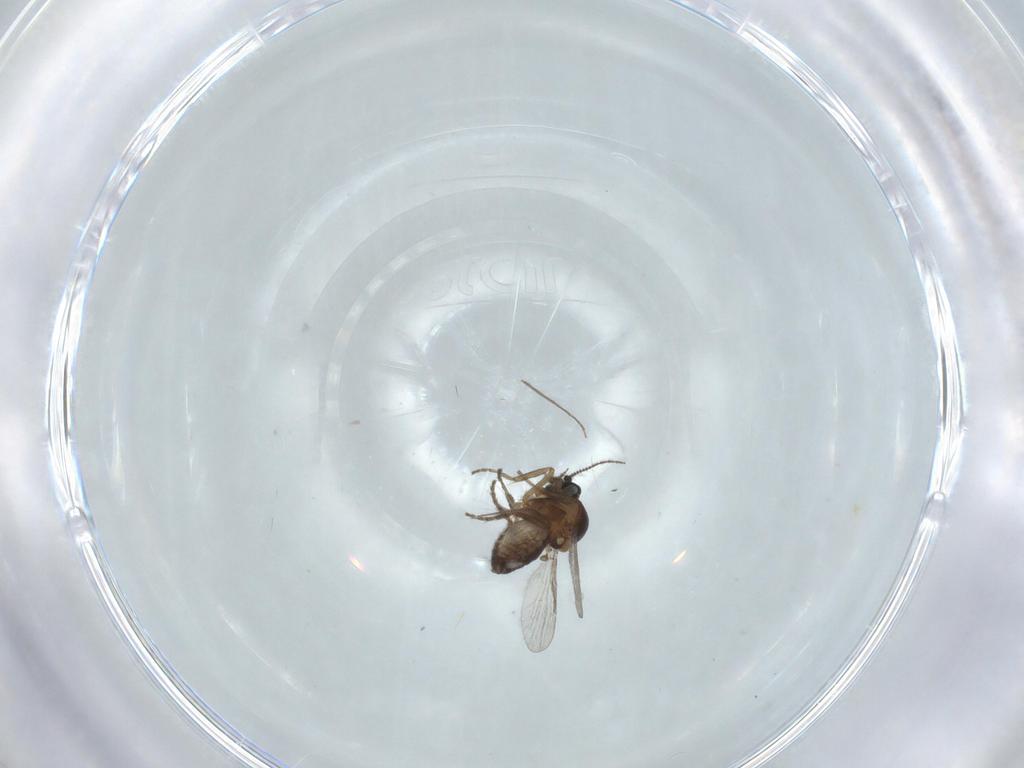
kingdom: Animalia
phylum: Arthropoda
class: Insecta
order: Diptera
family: Chironomidae
